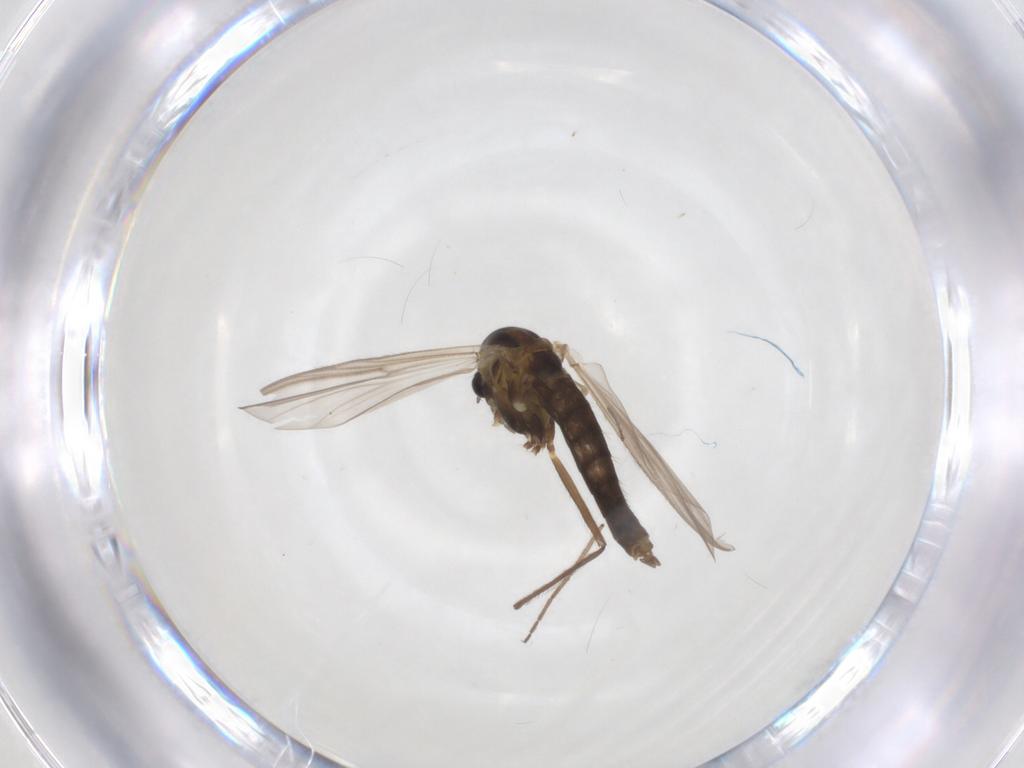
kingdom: Animalia
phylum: Arthropoda
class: Insecta
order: Diptera
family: Chironomidae
